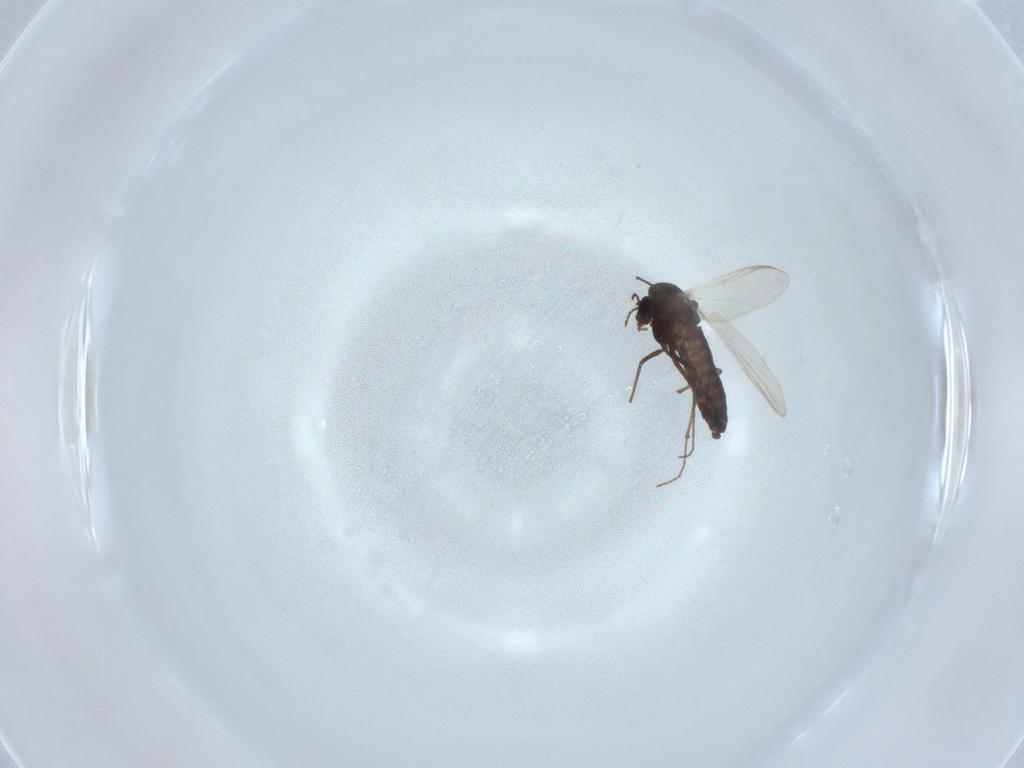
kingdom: Animalia
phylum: Arthropoda
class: Insecta
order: Diptera
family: Chironomidae
